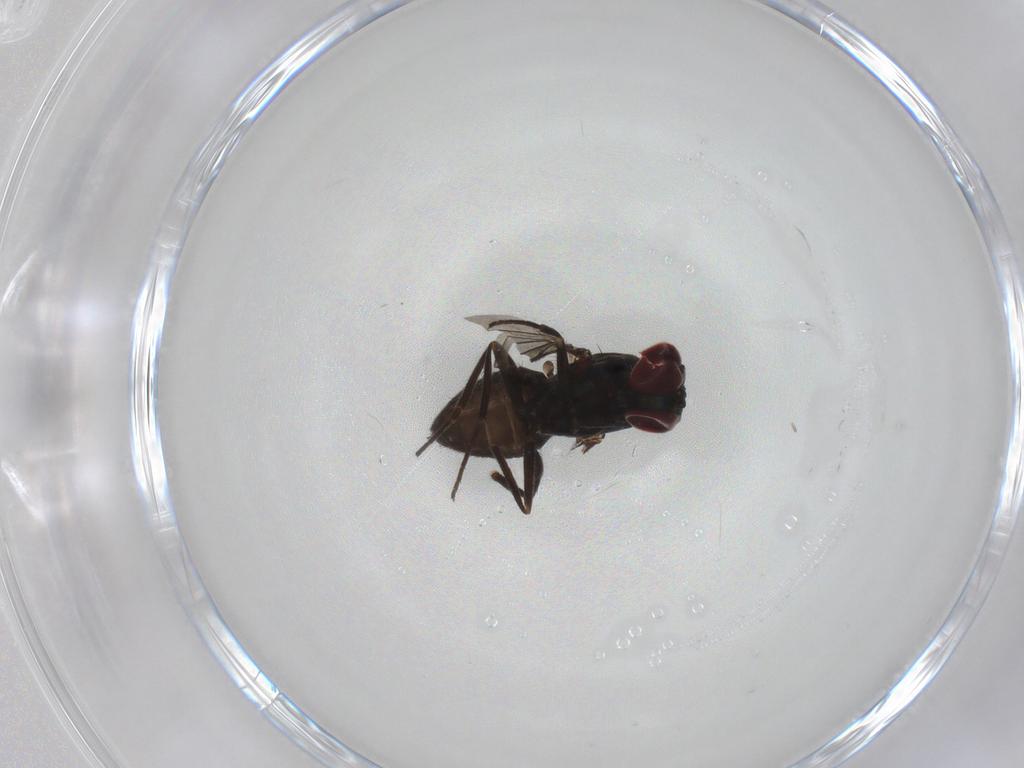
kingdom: Animalia
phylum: Arthropoda
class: Insecta
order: Diptera
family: Dolichopodidae
